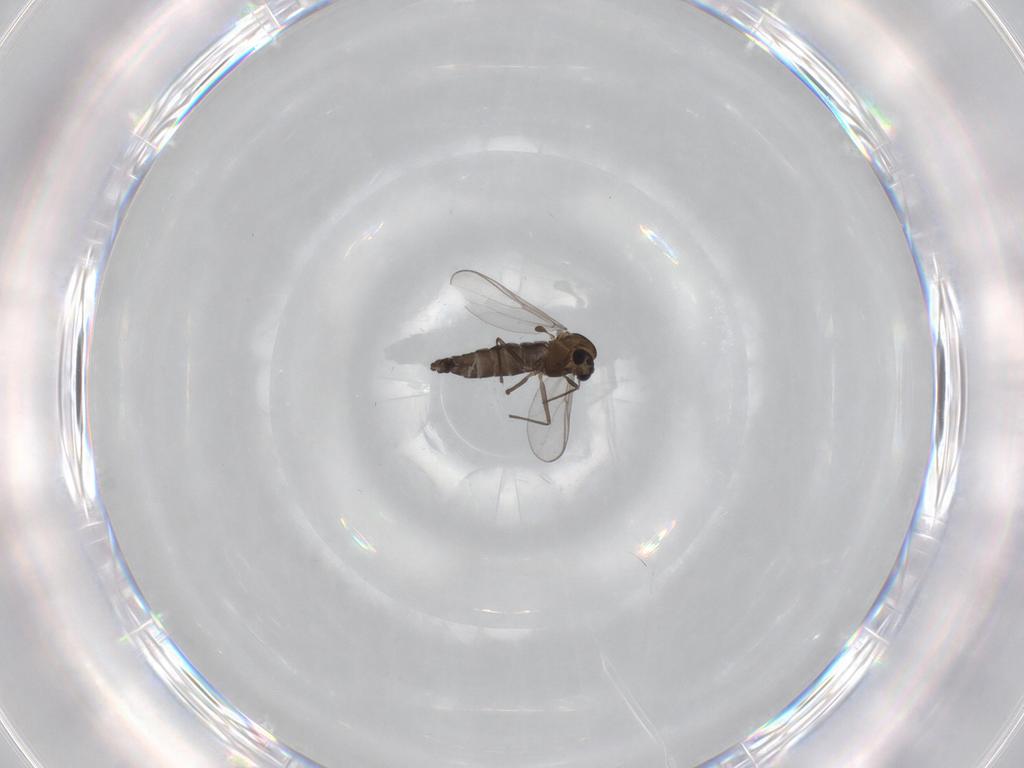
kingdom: Animalia
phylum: Arthropoda
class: Insecta
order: Diptera
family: Chironomidae
